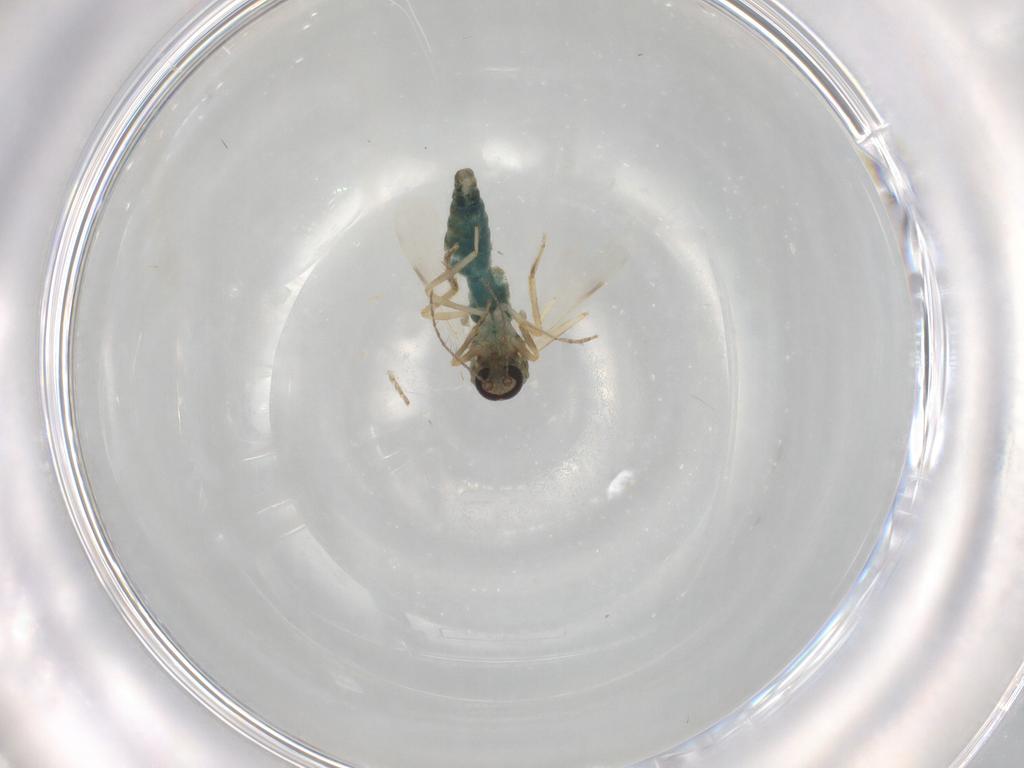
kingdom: Animalia
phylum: Arthropoda
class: Insecta
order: Diptera
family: Ceratopogonidae
